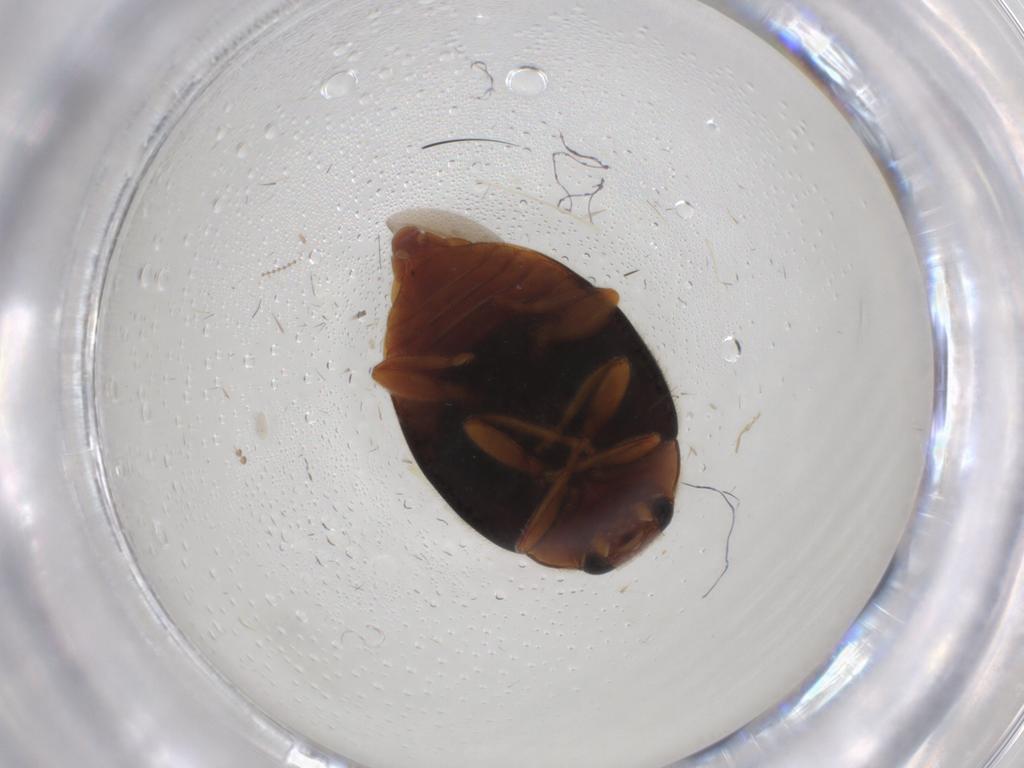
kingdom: Animalia
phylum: Arthropoda
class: Insecta
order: Coleoptera
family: Coccinellidae
